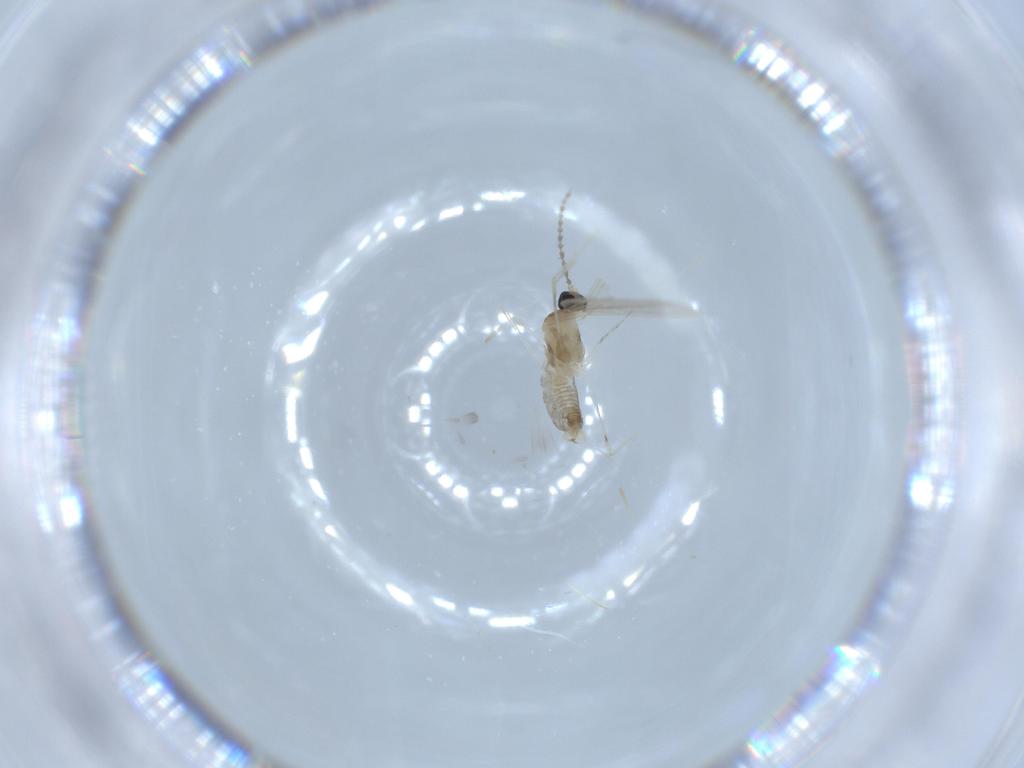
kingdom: Animalia
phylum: Arthropoda
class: Insecta
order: Diptera
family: Cecidomyiidae
